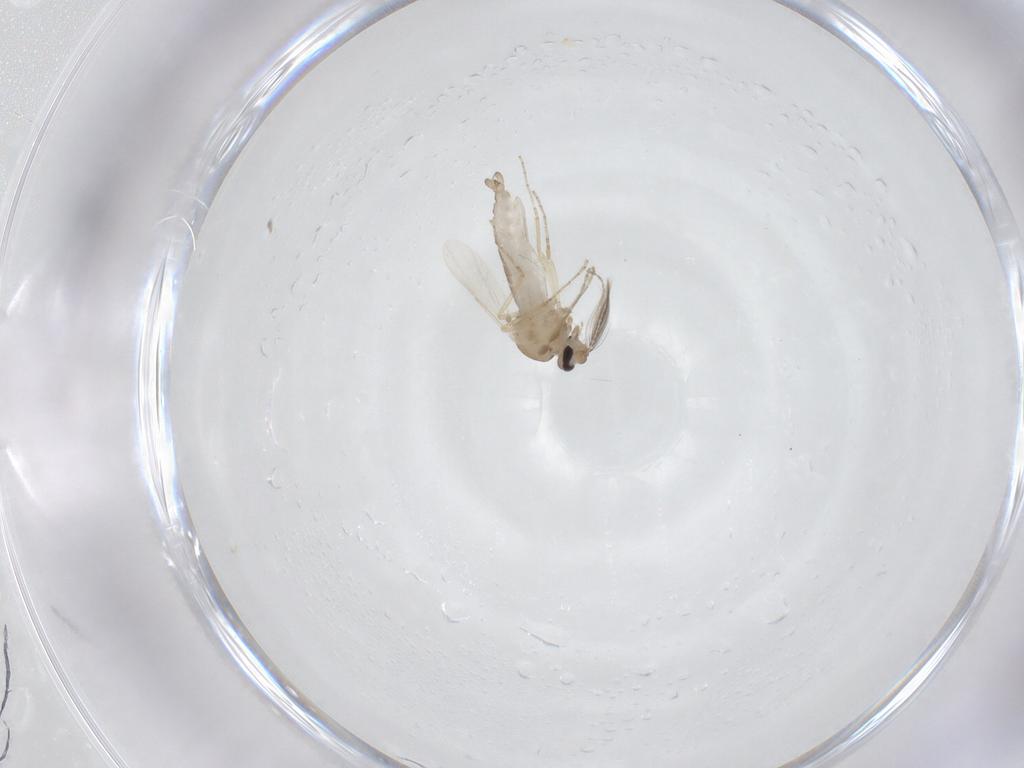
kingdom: Animalia
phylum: Arthropoda
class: Insecta
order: Diptera
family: Ceratopogonidae
